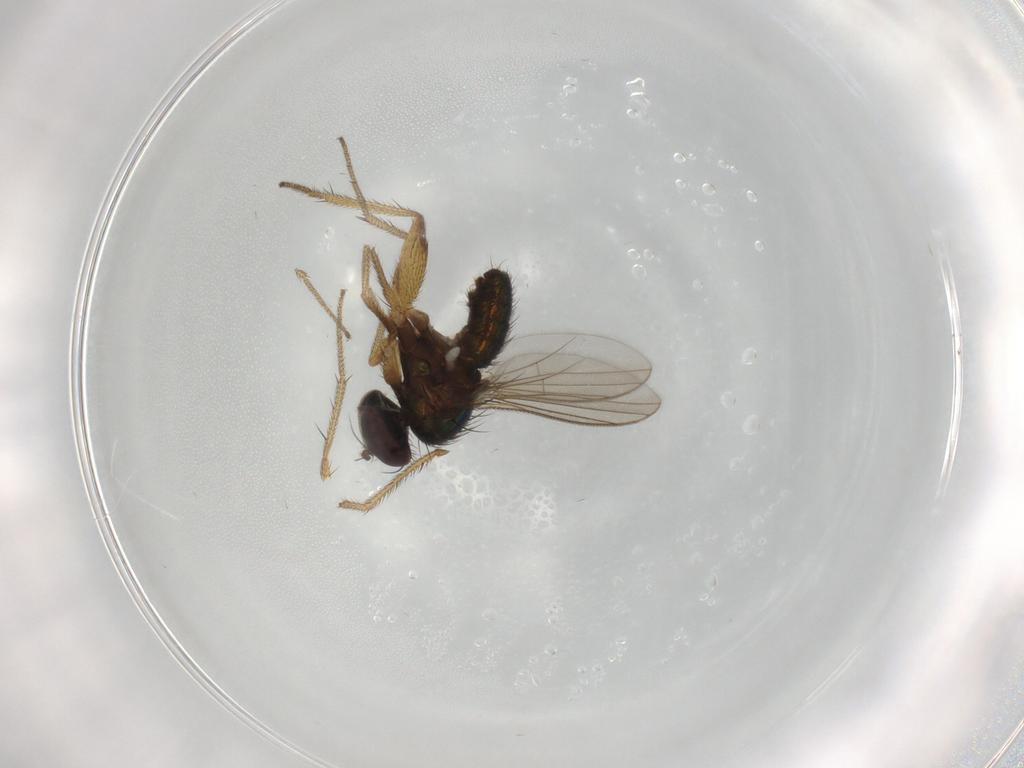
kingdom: Animalia
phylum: Arthropoda
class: Insecta
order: Diptera
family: Dolichopodidae
